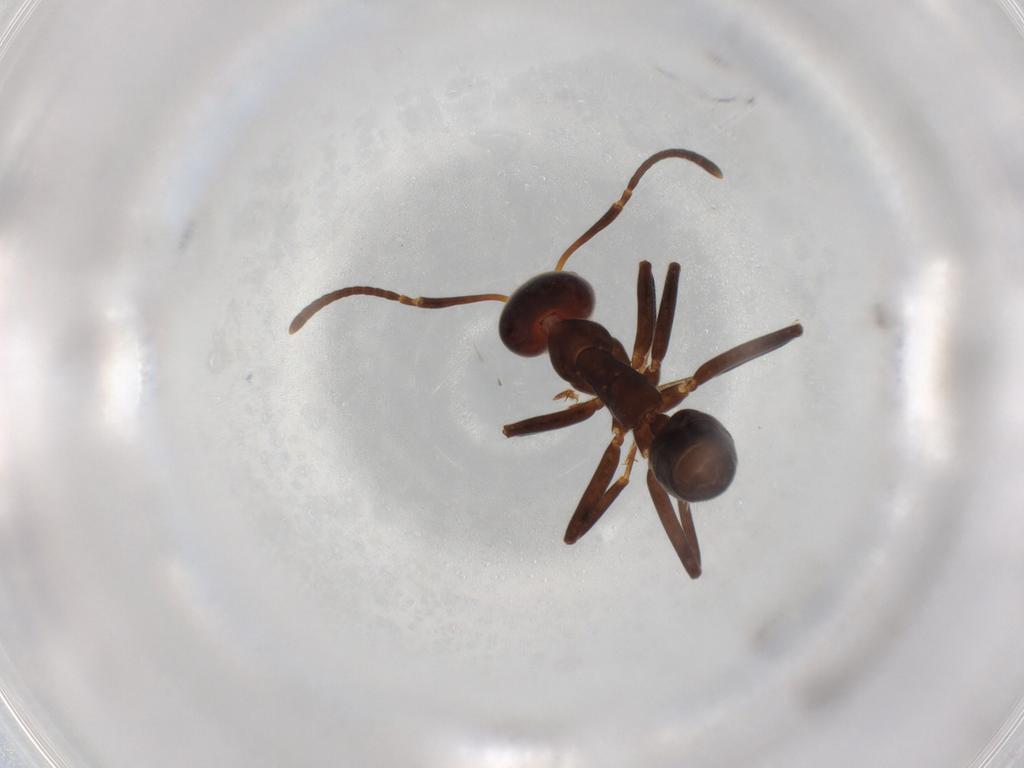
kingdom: Animalia
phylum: Arthropoda
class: Insecta
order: Hymenoptera
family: Formicidae
